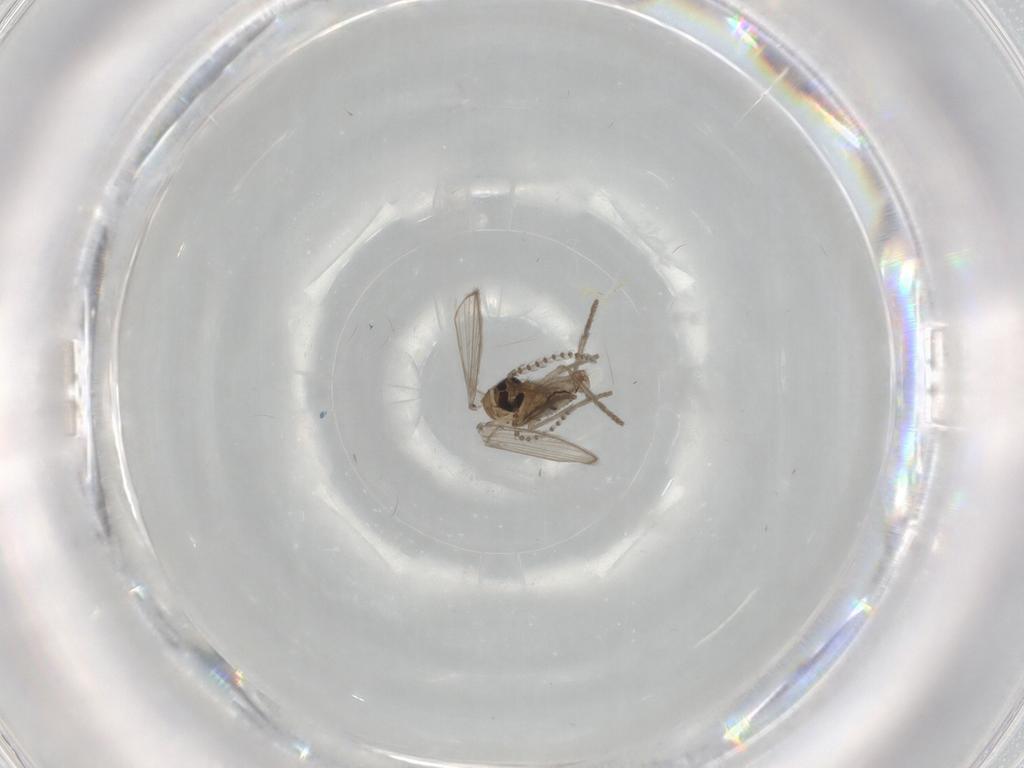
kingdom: Animalia
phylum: Arthropoda
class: Insecta
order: Diptera
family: Psychodidae
